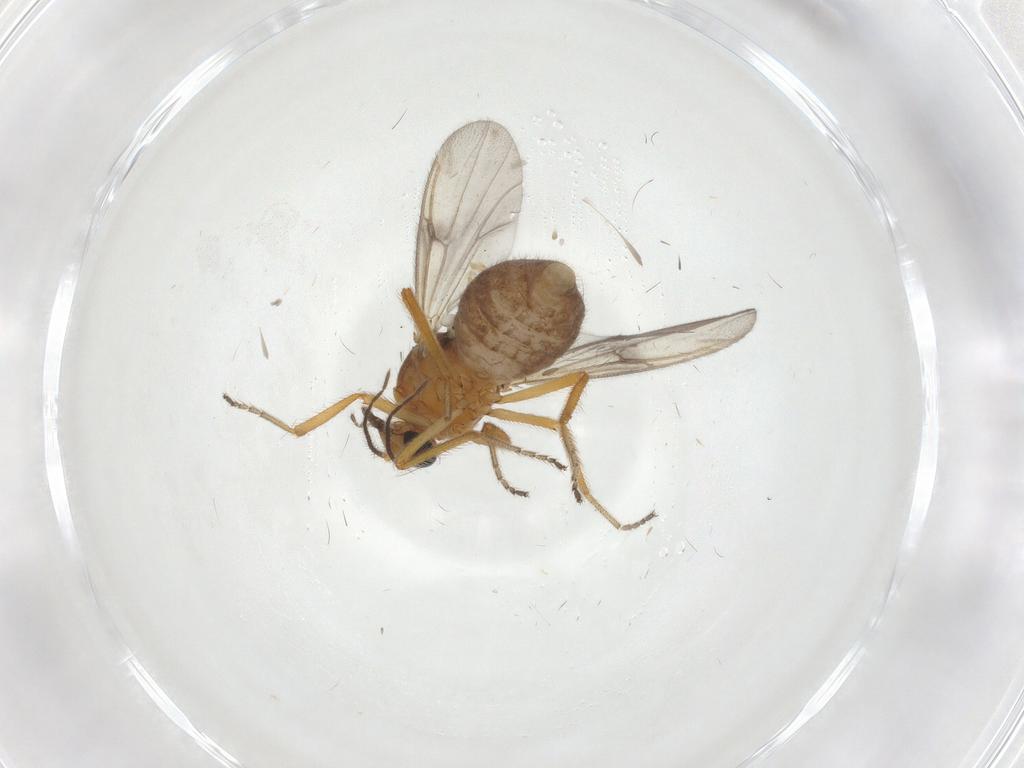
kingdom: Animalia
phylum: Arthropoda
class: Insecta
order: Diptera
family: Ceratopogonidae
